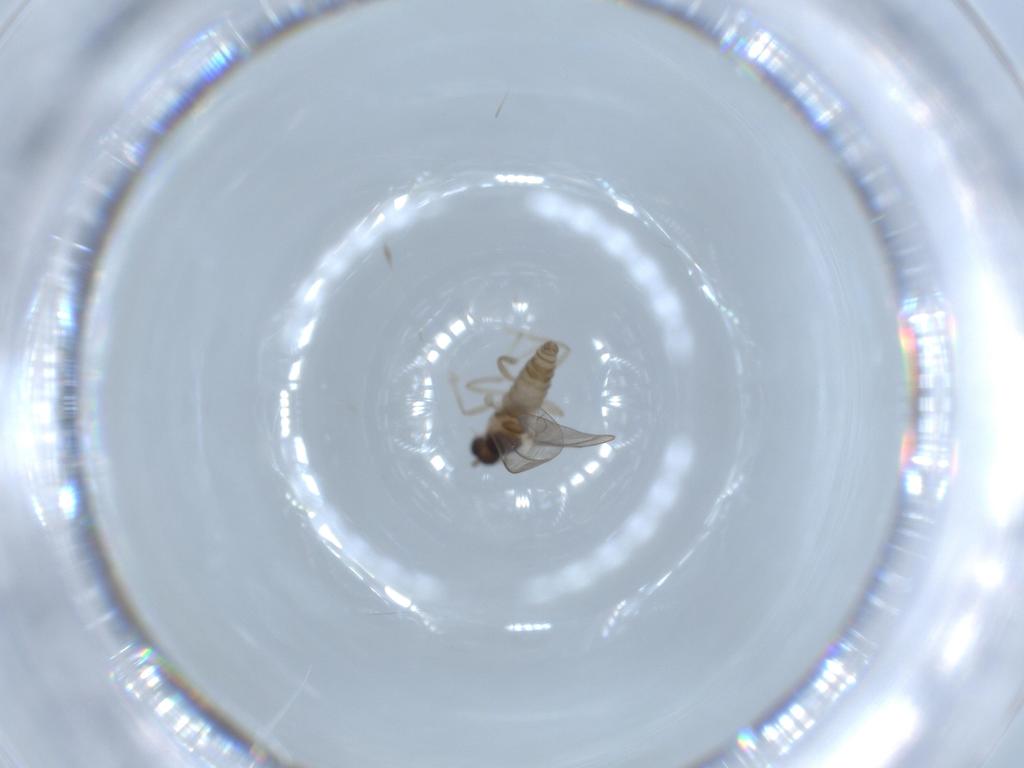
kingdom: Animalia
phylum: Arthropoda
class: Insecta
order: Diptera
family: Cecidomyiidae
